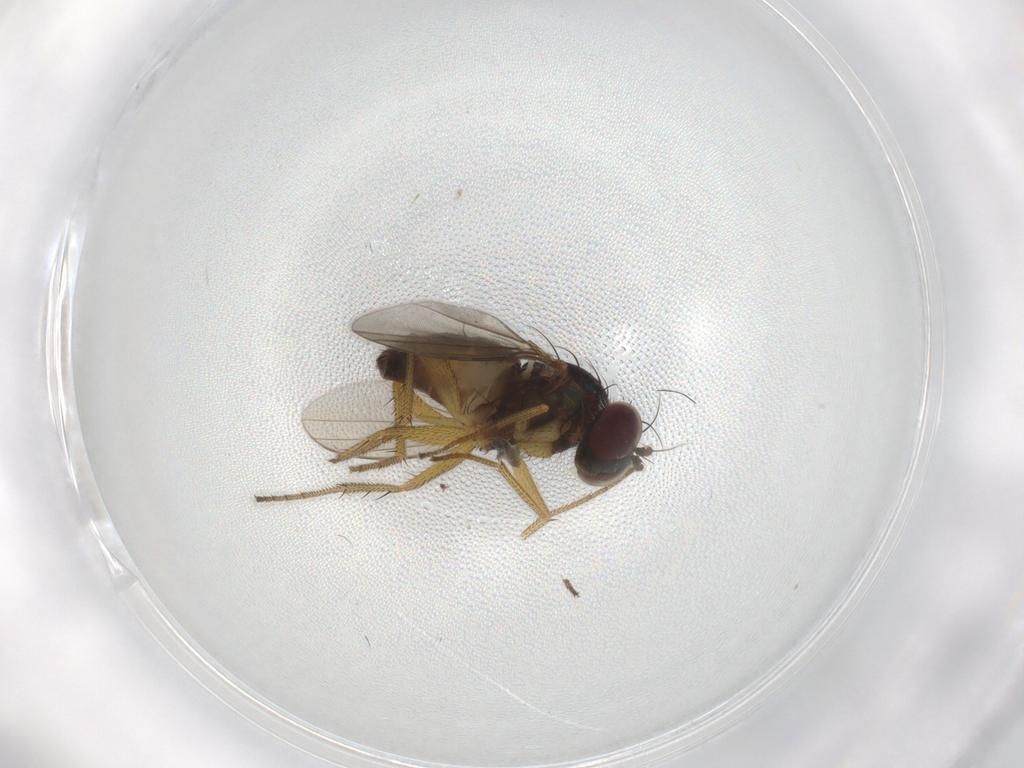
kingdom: Animalia
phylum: Arthropoda
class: Insecta
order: Diptera
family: Dolichopodidae
